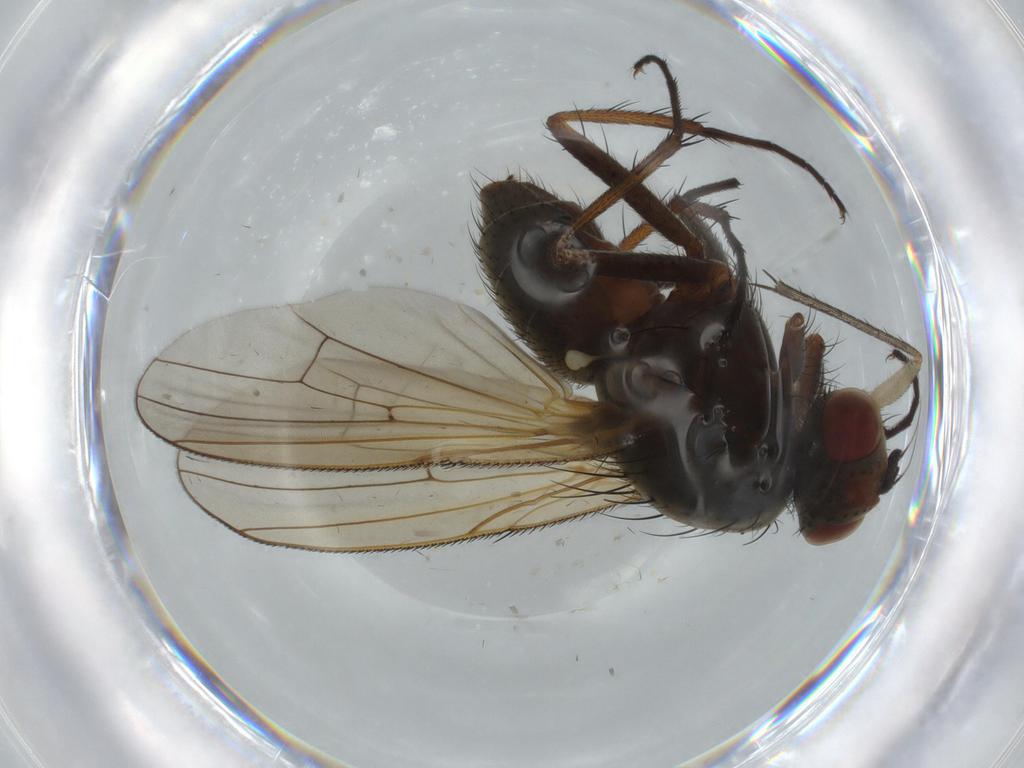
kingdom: Animalia
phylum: Arthropoda
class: Insecta
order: Diptera
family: Anthomyiidae
